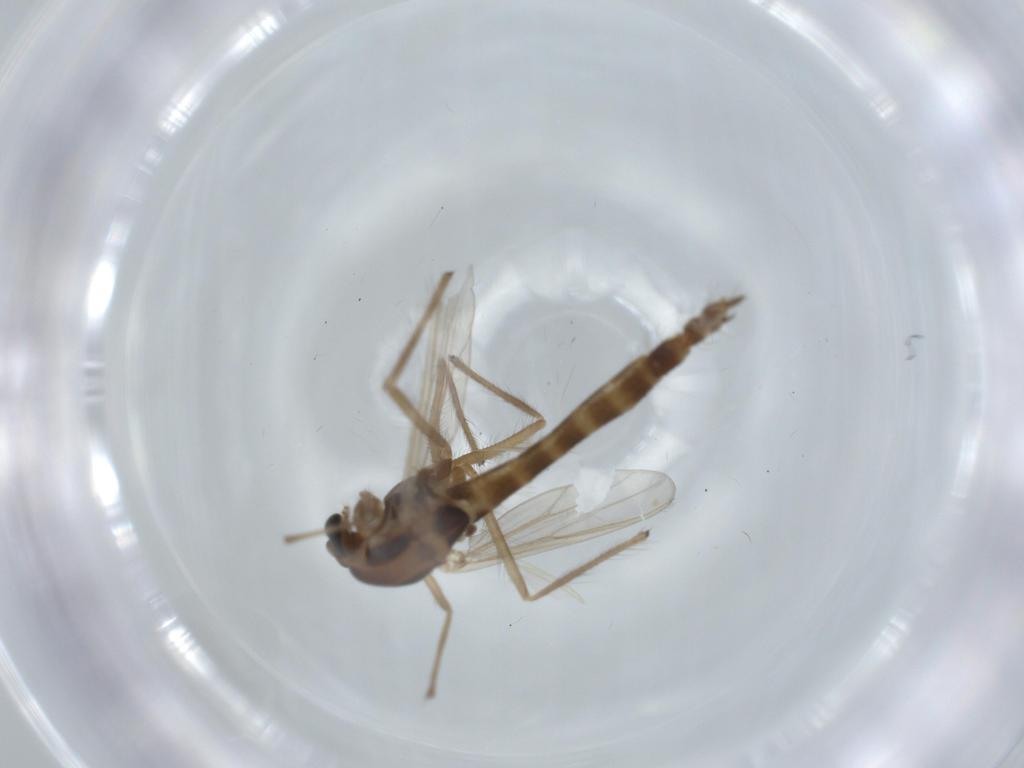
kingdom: Animalia
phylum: Arthropoda
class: Insecta
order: Diptera
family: Chironomidae
